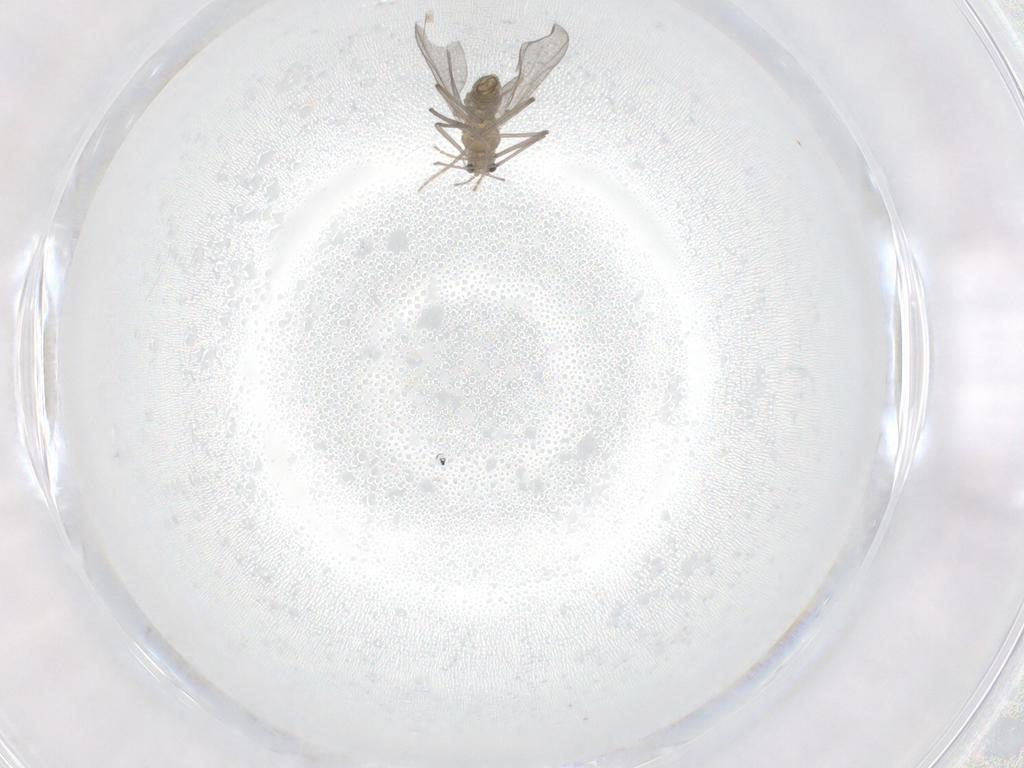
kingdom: Animalia
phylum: Arthropoda
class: Insecta
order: Diptera
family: Chironomidae
